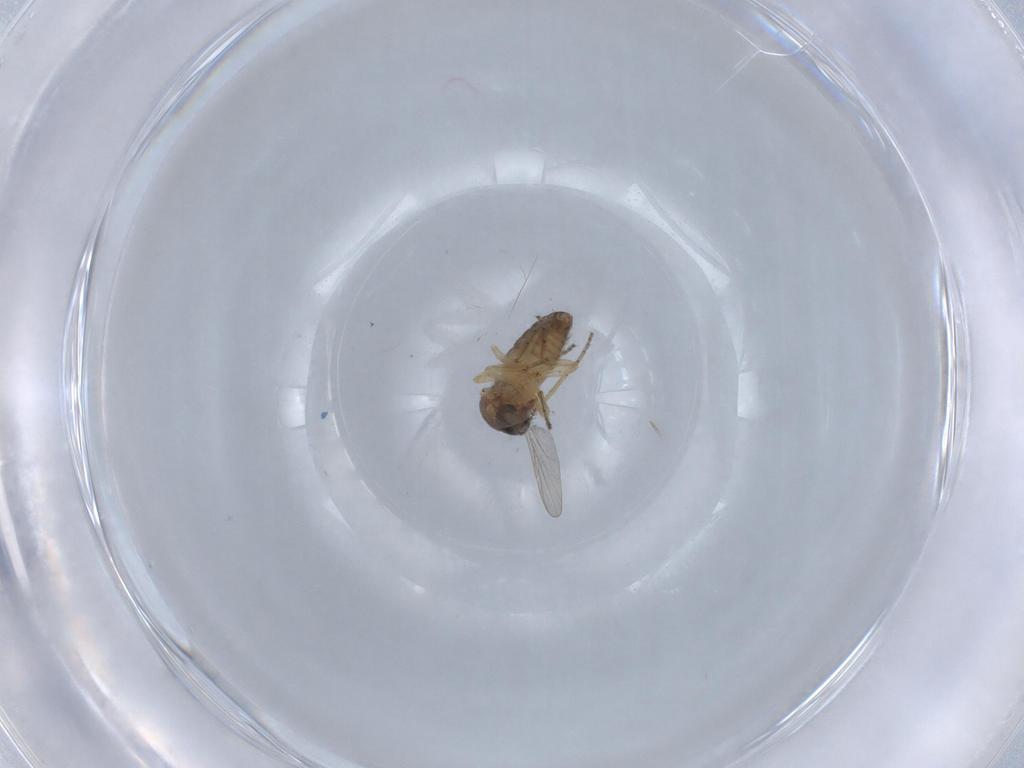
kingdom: Animalia
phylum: Arthropoda
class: Insecta
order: Diptera
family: Ceratopogonidae
